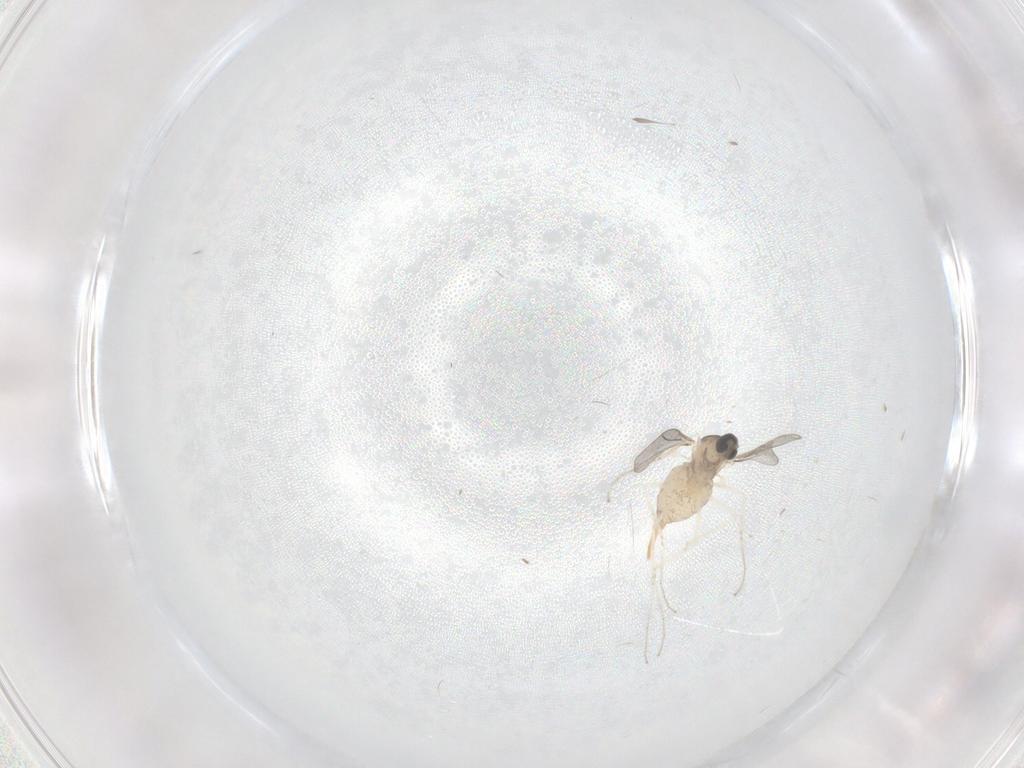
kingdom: Animalia
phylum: Arthropoda
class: Insecta
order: Diptera
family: Cecidomyiidae
